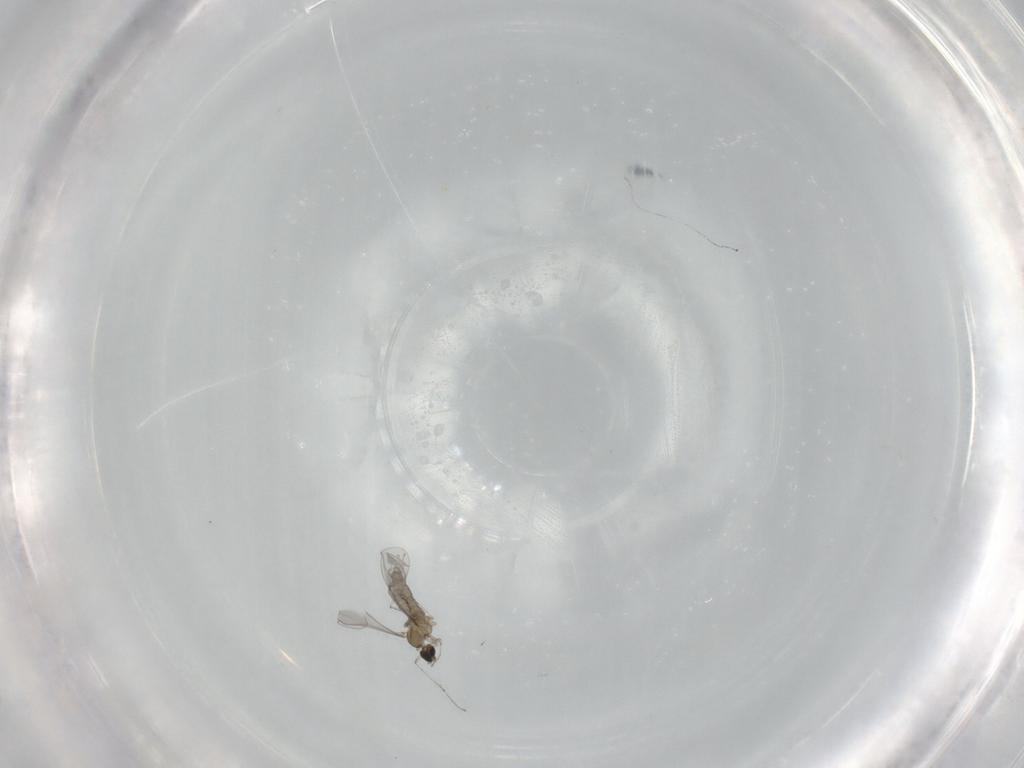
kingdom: Animalia
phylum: Arthropoda
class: Insecta
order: Diptera
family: Cecidomyiidae
